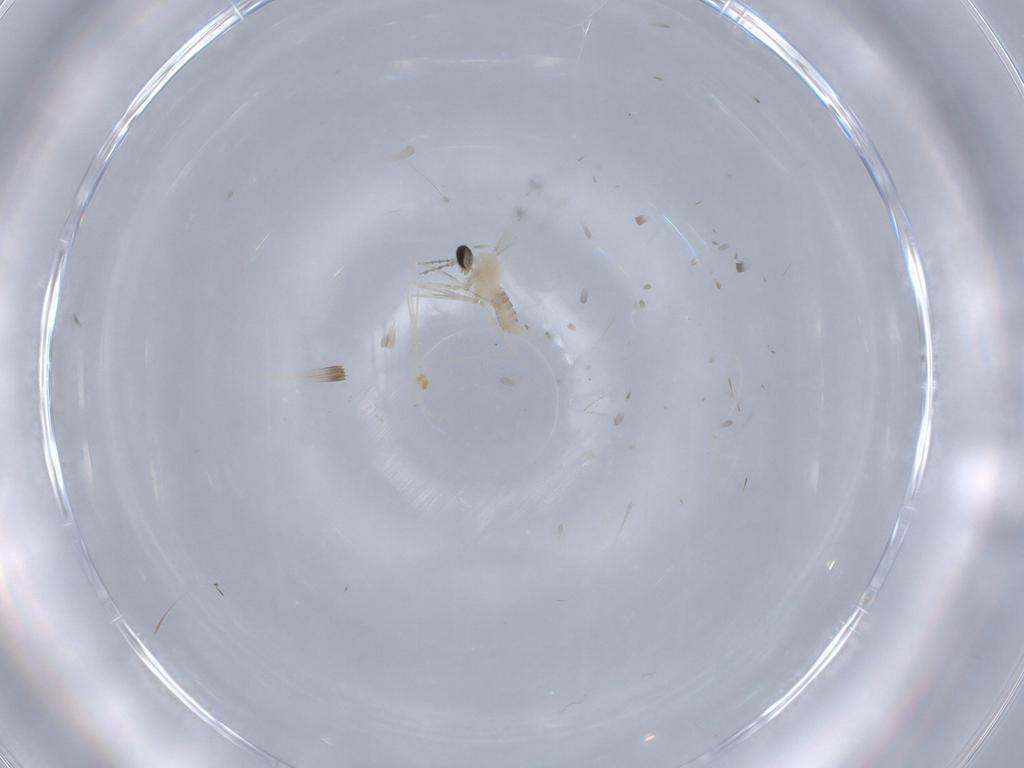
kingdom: Animalia
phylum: Arthropoda
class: Insecta
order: Diptera
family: Cecidomyiidae
